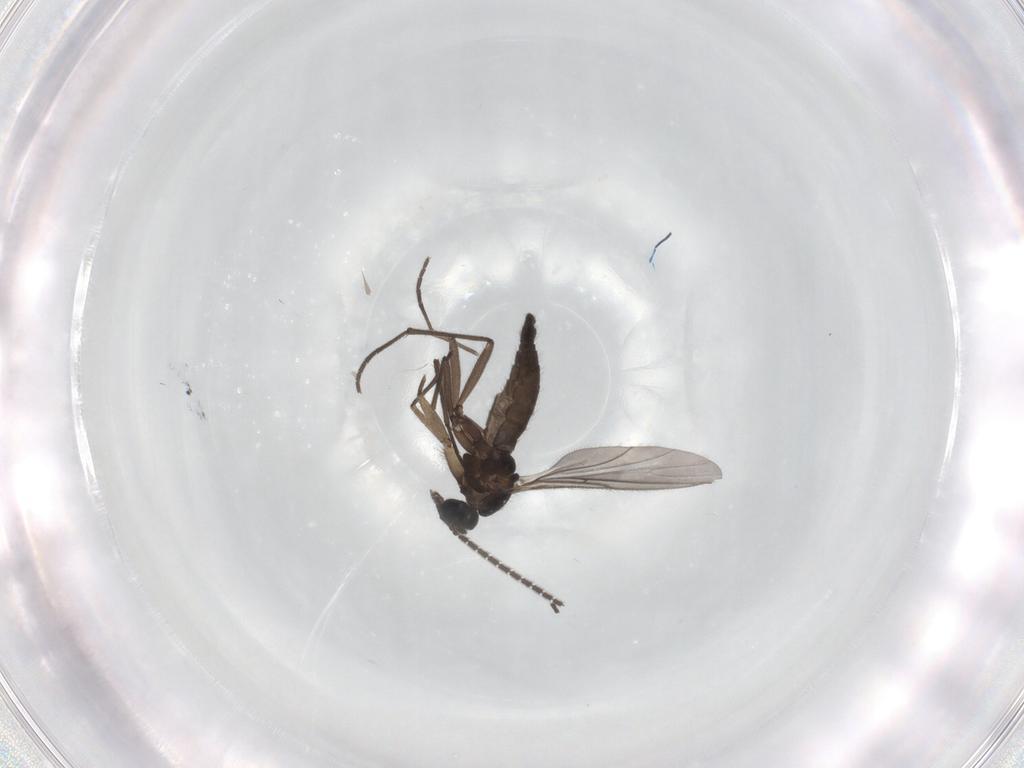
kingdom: Animalia
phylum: Arthropoda
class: Insecta
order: Diptera
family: Sciaridae
